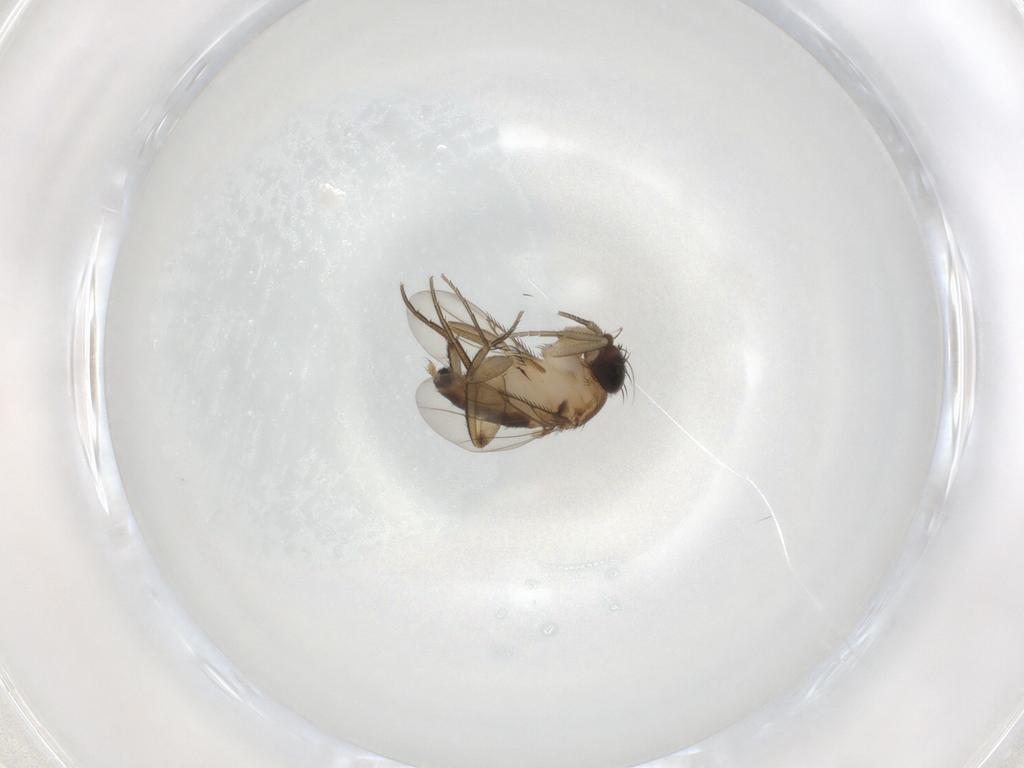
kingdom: Animalia
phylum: Arthropoda
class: Insecta
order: Diptera
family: Phoridae
